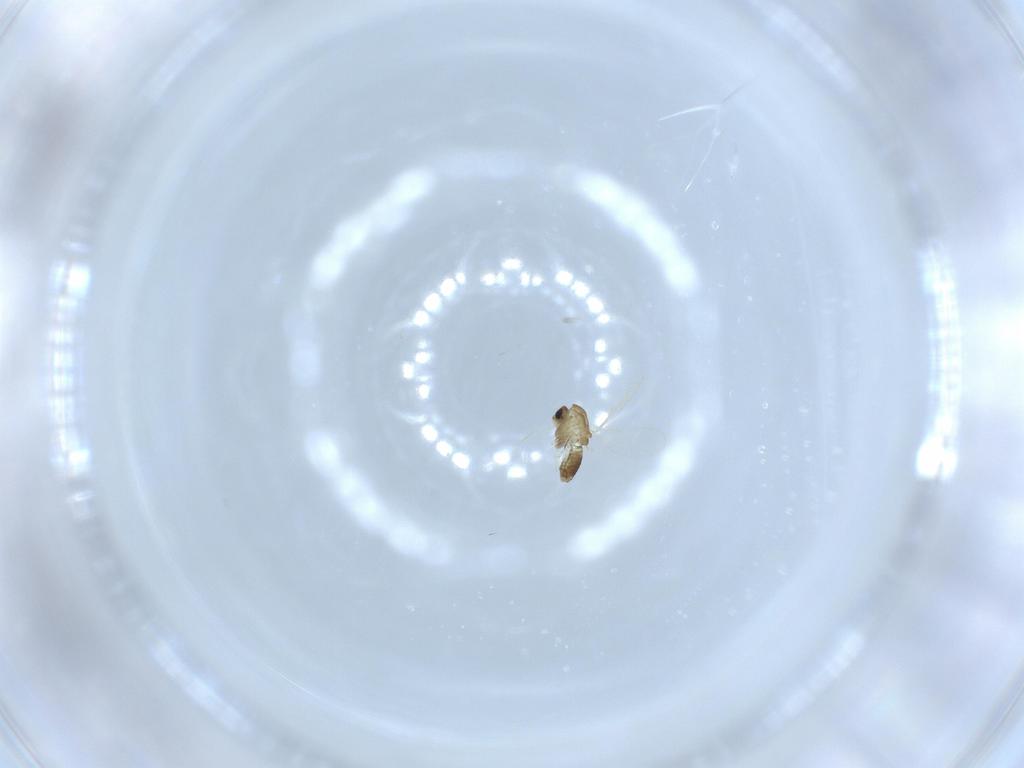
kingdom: Animalia
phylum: Arthropoda
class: Insecta
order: Diptera
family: Chironomidae
